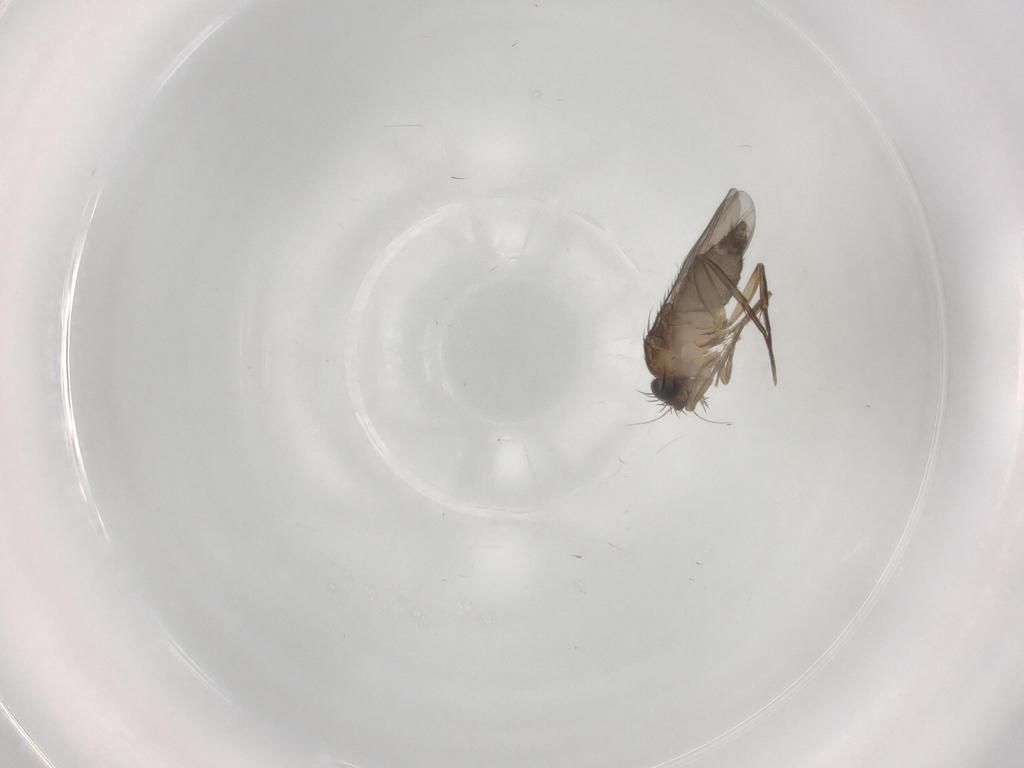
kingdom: Animalia
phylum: Arthropoda
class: Insecta
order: Diptera
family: Phoridae
